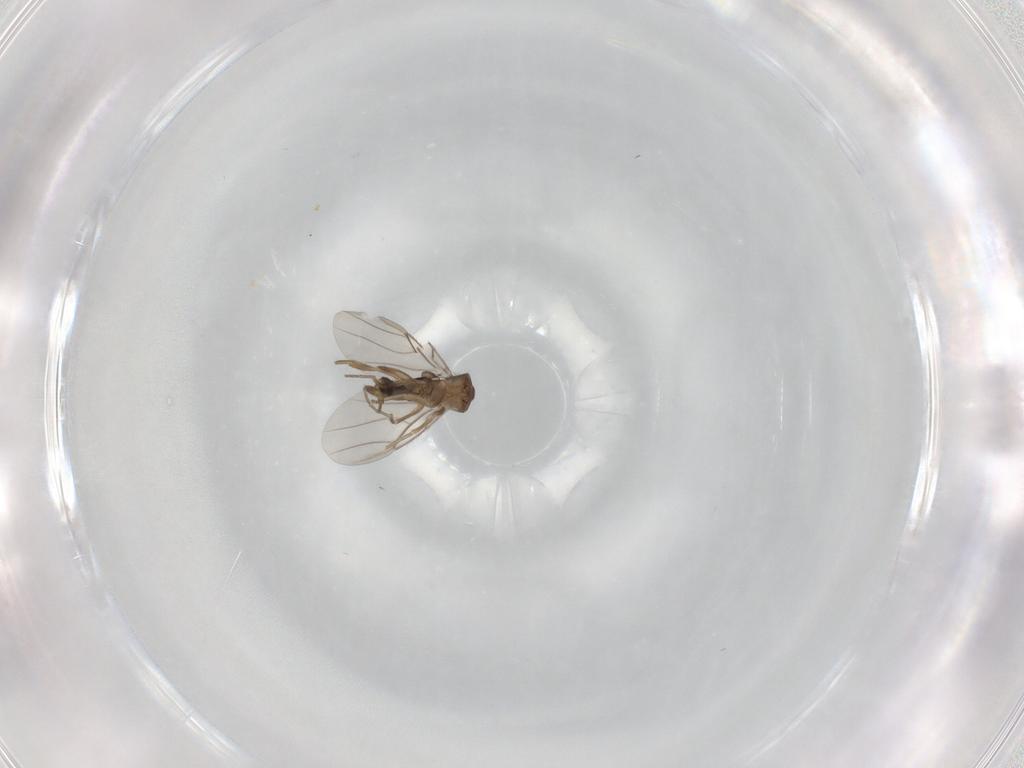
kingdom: Animalia
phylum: Arthropoda
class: Insecta
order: Diptera
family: Phoridae
